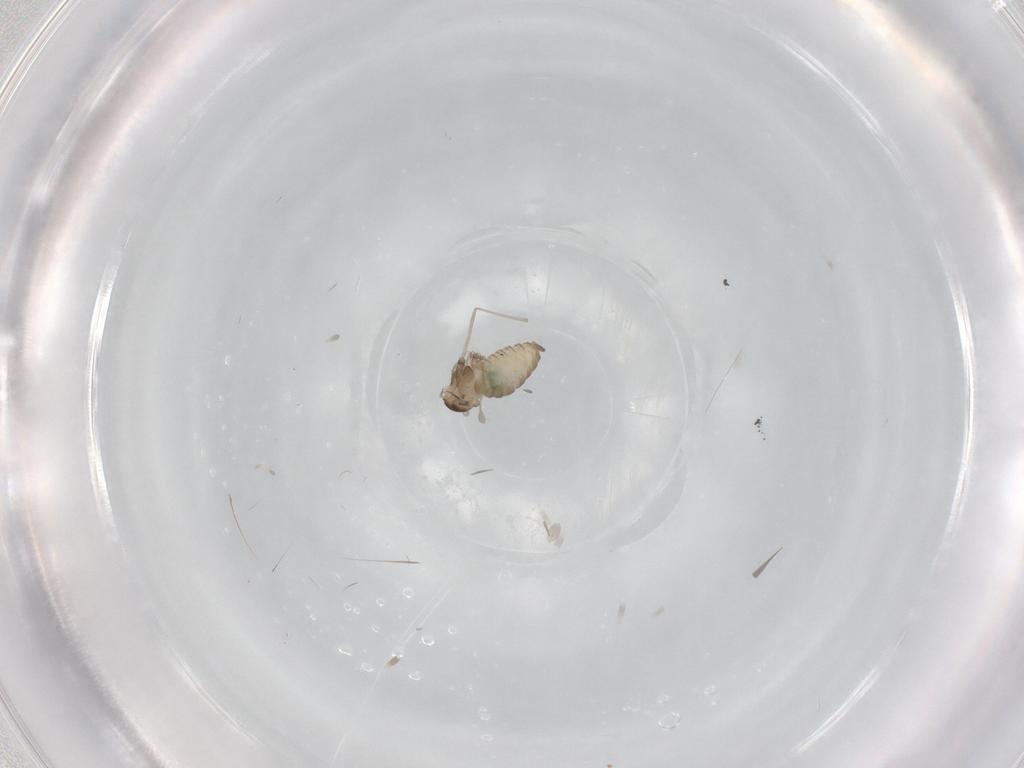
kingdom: Animalia
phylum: Arthropoda
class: Insecta
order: Diptera
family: Cecidomyiidae
